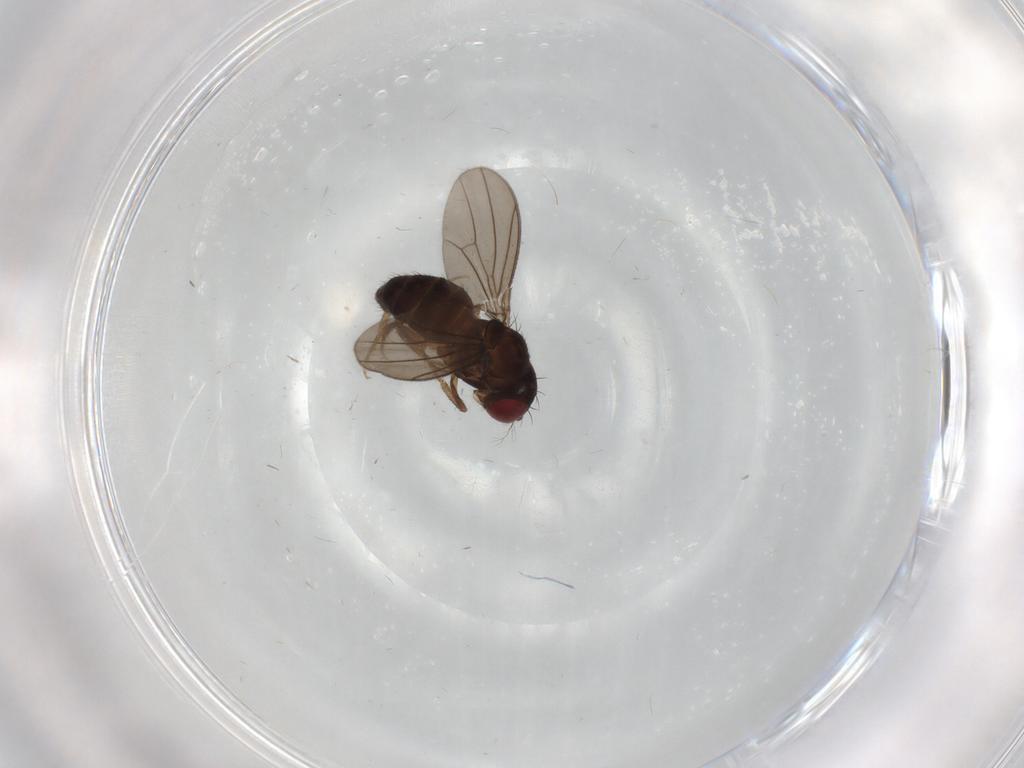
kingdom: Animalia
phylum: Arthropoda
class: Insecta
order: Diptera
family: Drosophilidae
